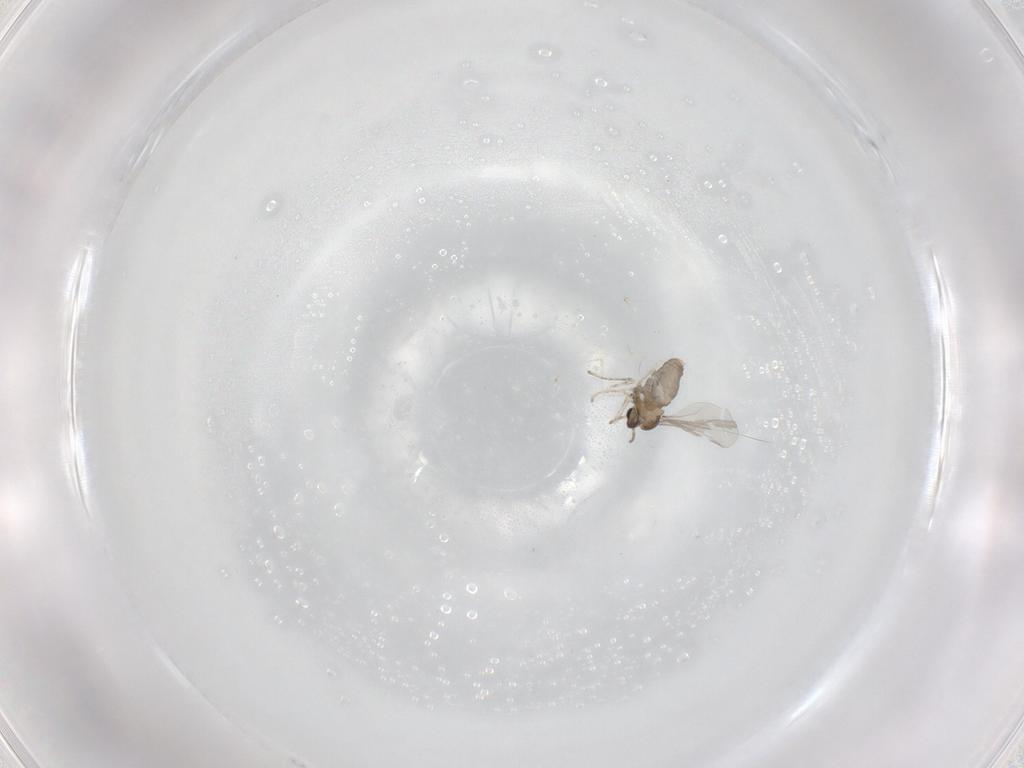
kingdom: Animalia
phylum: Arthropoda
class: Insecta
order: Diptera
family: Cecidomyiidae
